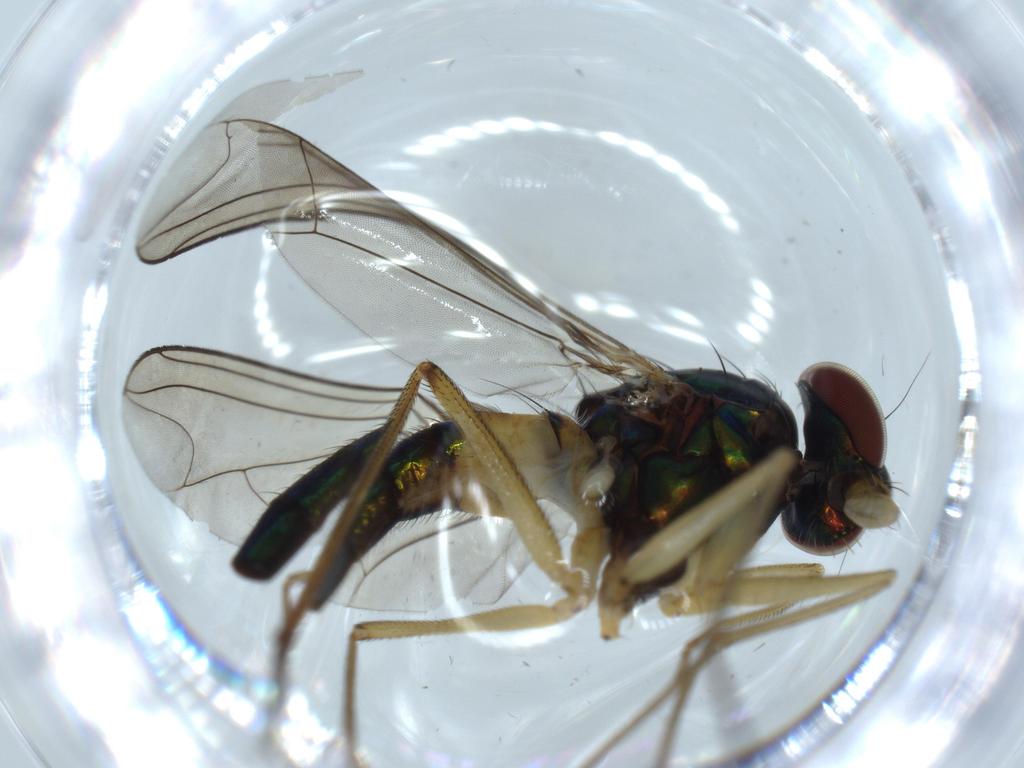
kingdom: Animalia
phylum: Arthropoda
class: Insecta
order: Diptera
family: Dolichopodidae
